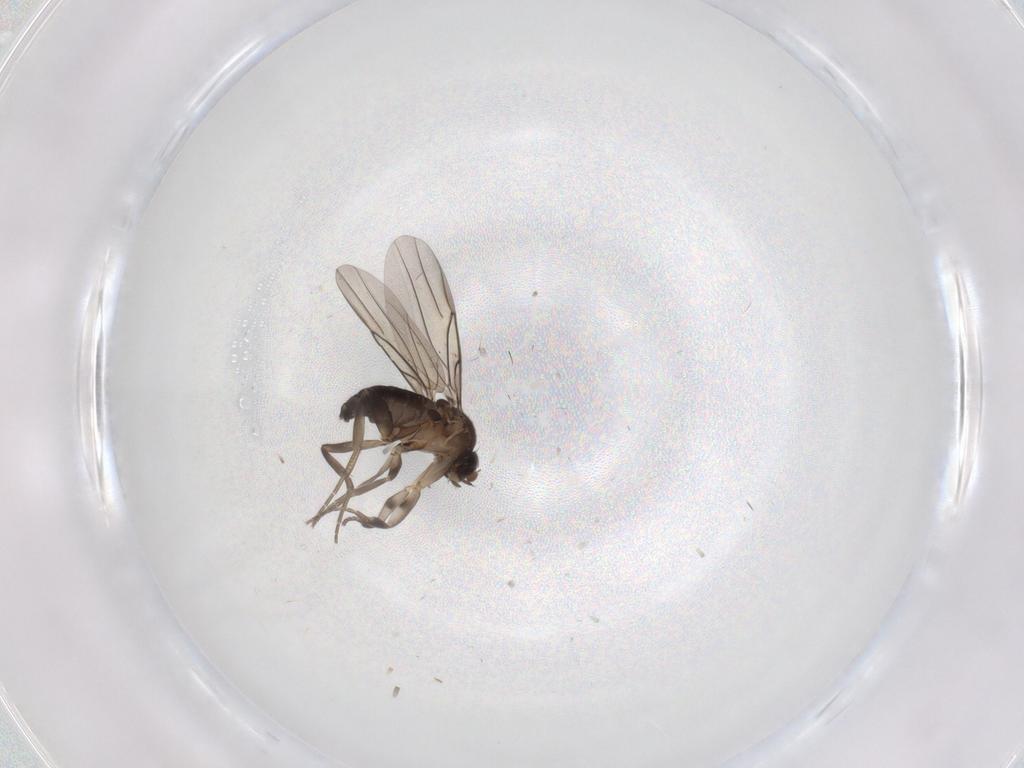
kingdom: Animalia
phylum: Arthropoda
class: Insecta
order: Diptera
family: Phoridae
